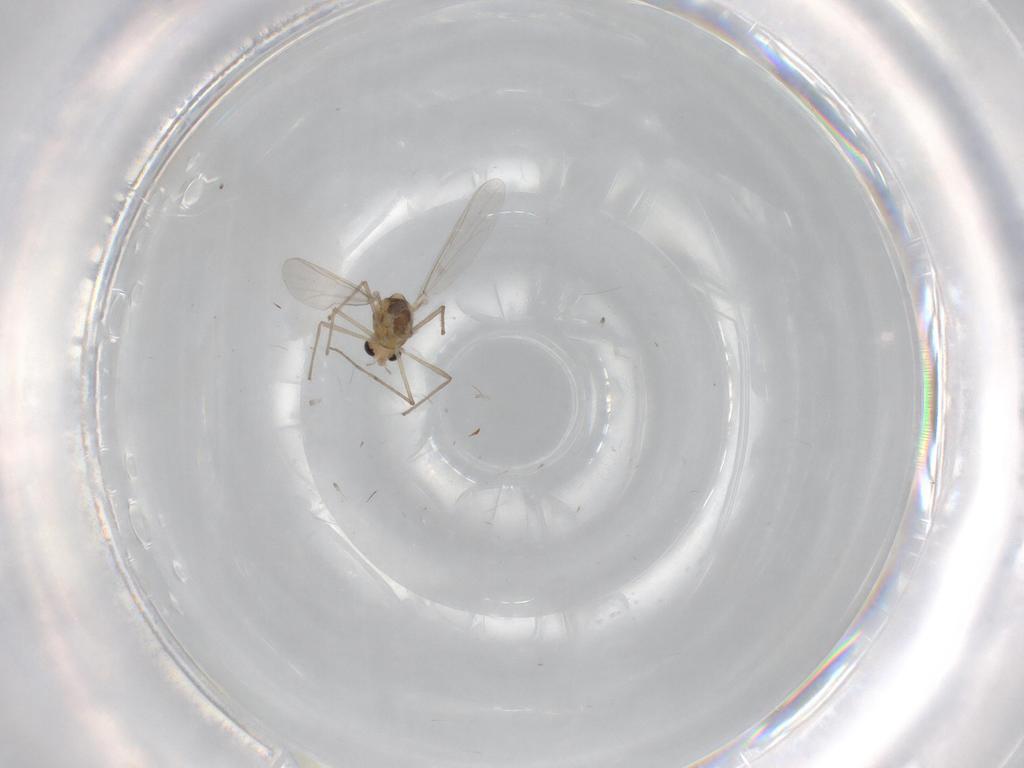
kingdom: Animalia
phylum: Arthropoda
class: Insecta
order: Diptera
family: Chironomidae
